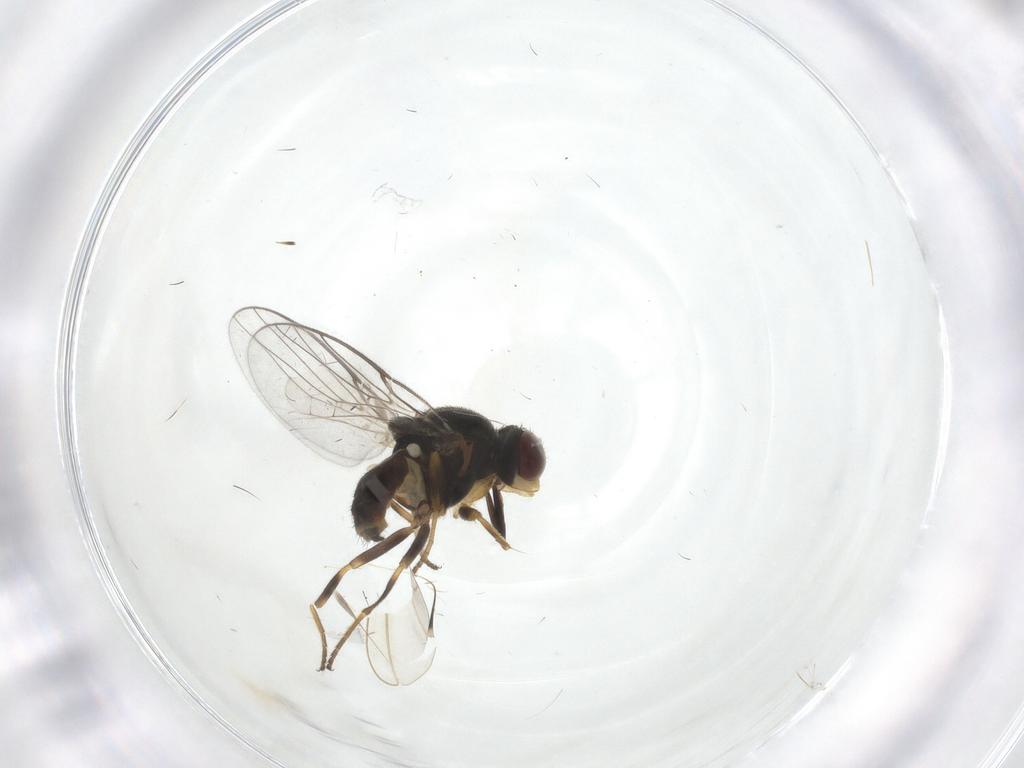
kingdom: Animalia
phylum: Arthropoda
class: Insecta
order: Diptera
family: Chloropidae
